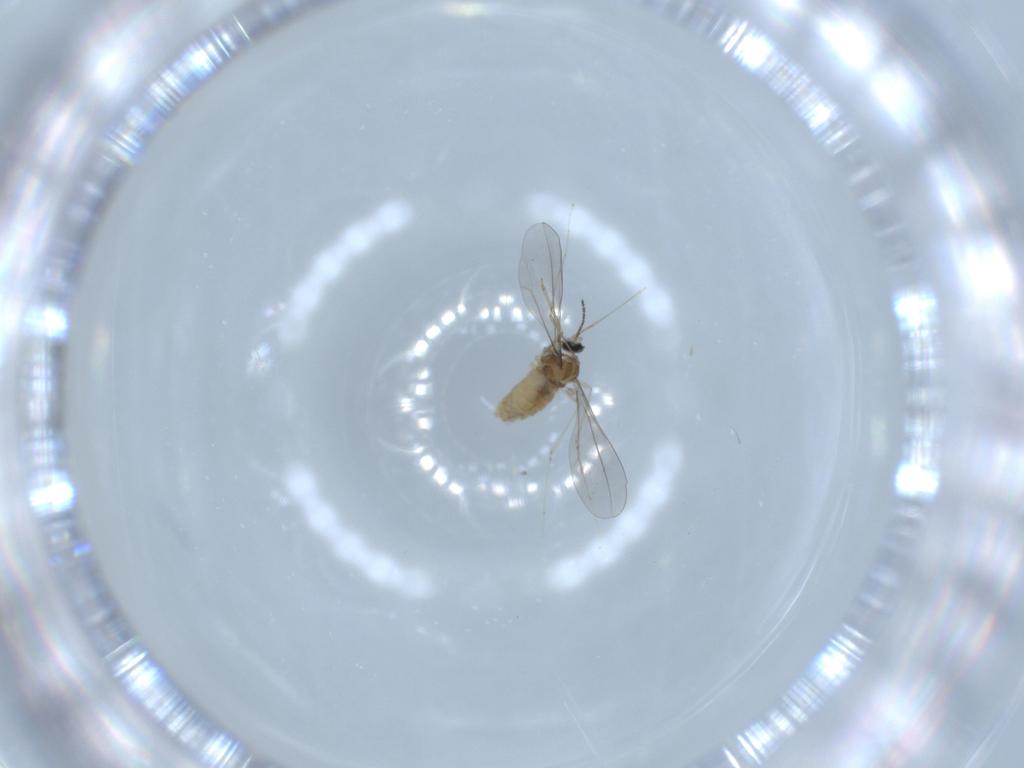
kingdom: Animalia
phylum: Arthropoda
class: Insecta
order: Diptera
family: Cecidomyiidae
